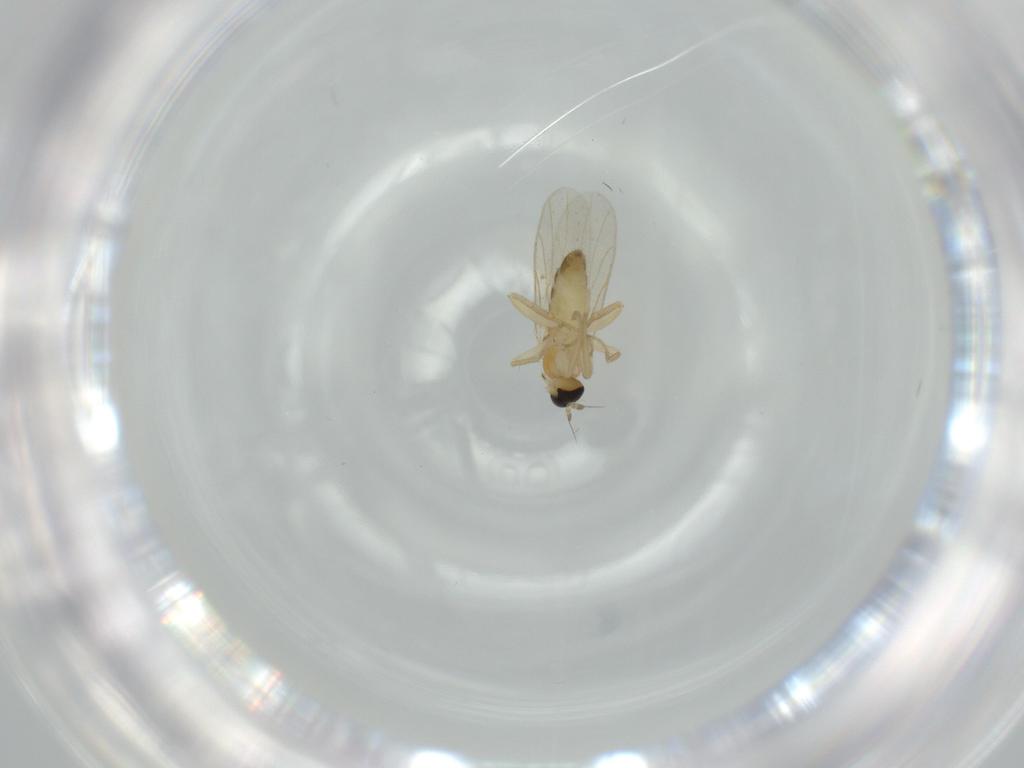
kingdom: Animalia
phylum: Arthropoda
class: Insecta
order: Diptera
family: Hybotidae
